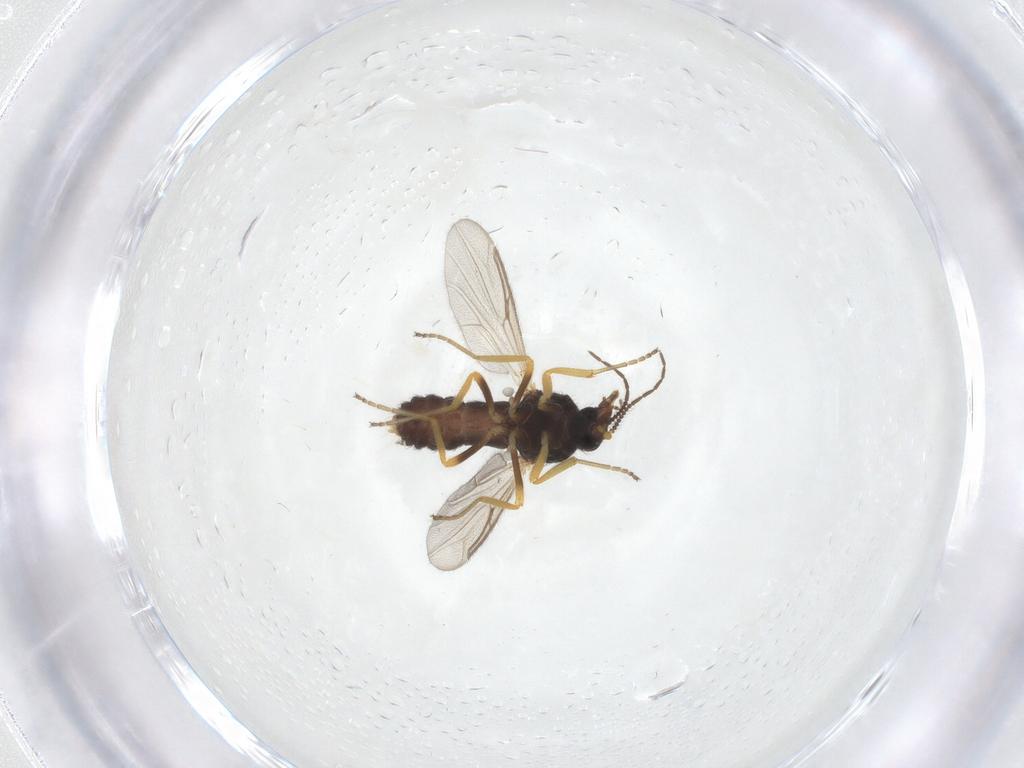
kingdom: Animalia
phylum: Arthropoda
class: Insecta
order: Diptera
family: Ceratopogonidae
